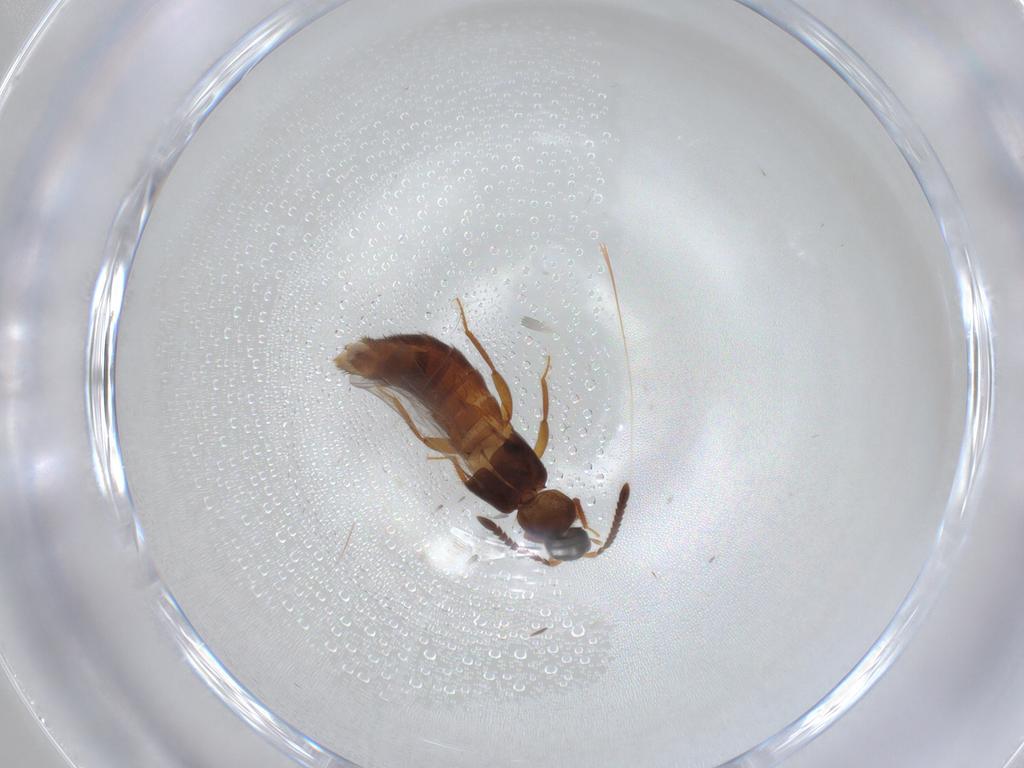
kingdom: Animalia
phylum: Arthropoda
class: Insecta
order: Coleoptera
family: Staphylinidae
